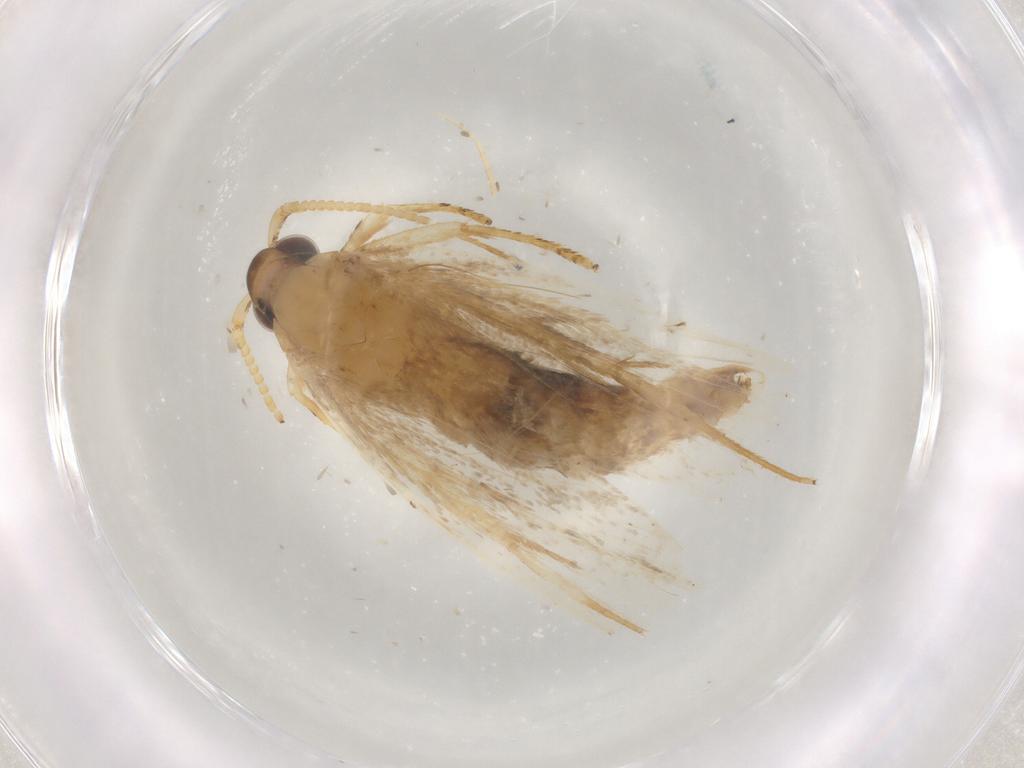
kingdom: Animalia
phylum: Arthropoda
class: Insecta
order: Lepidoptera
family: Lecithoceridae
